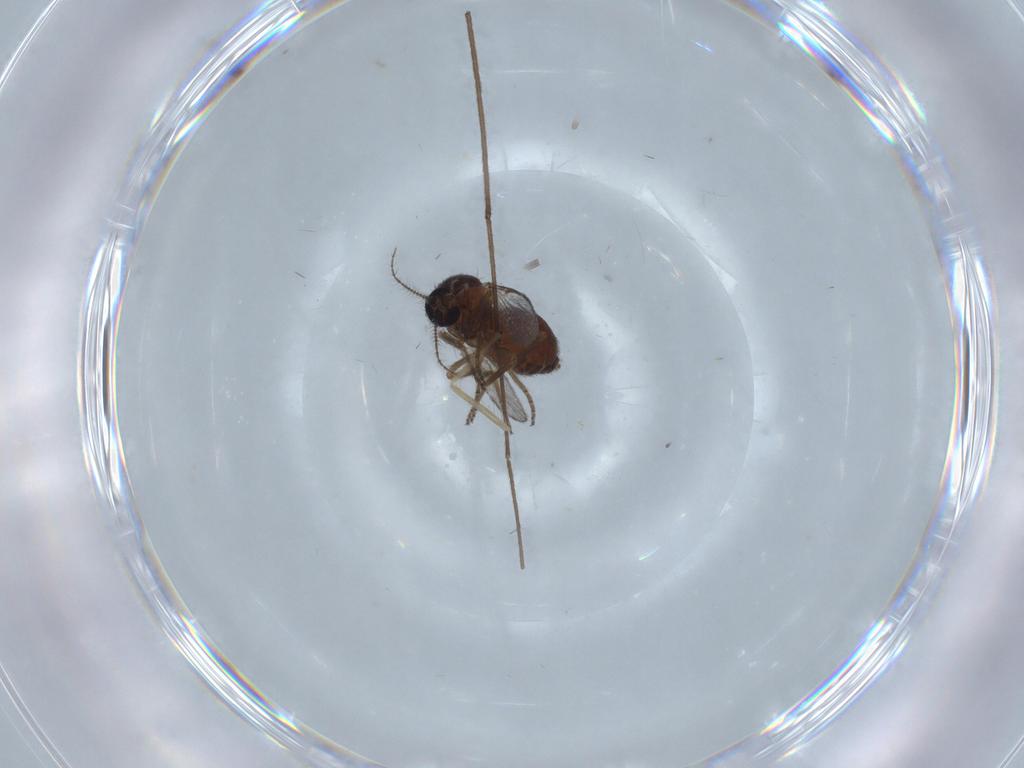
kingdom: Animalia
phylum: Arthropoda
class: Insecta
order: Diptera
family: Ceratopogonidae
